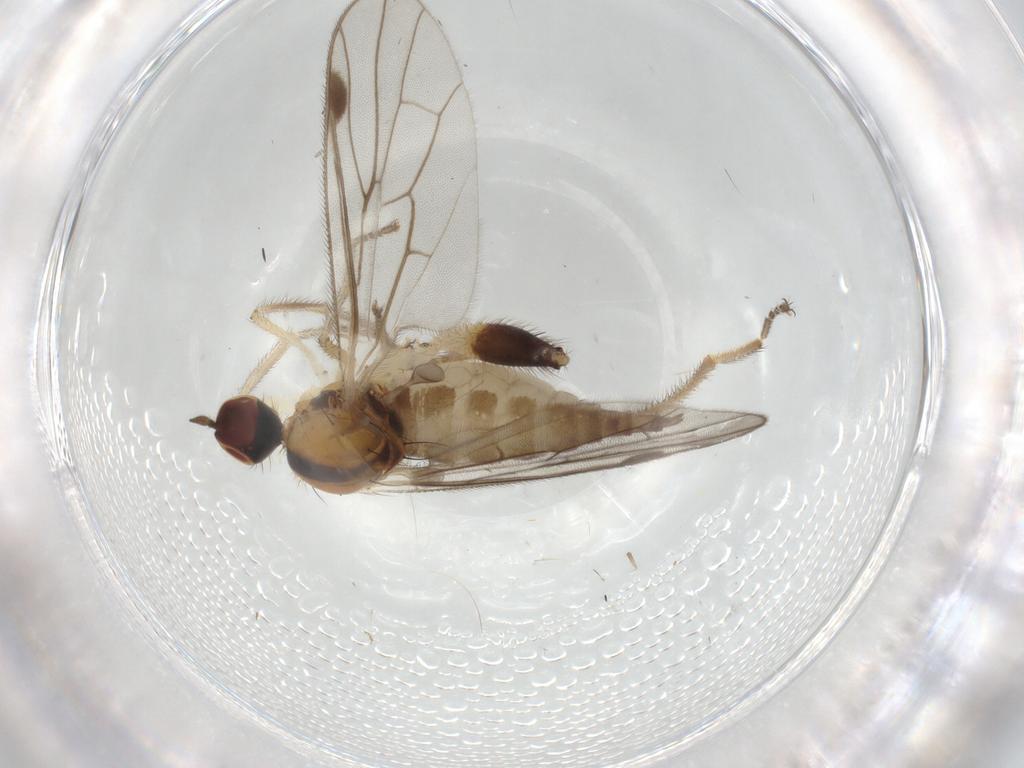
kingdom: Animalia
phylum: Arthropoda
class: Insecta
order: Diptera
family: Hybotidae
